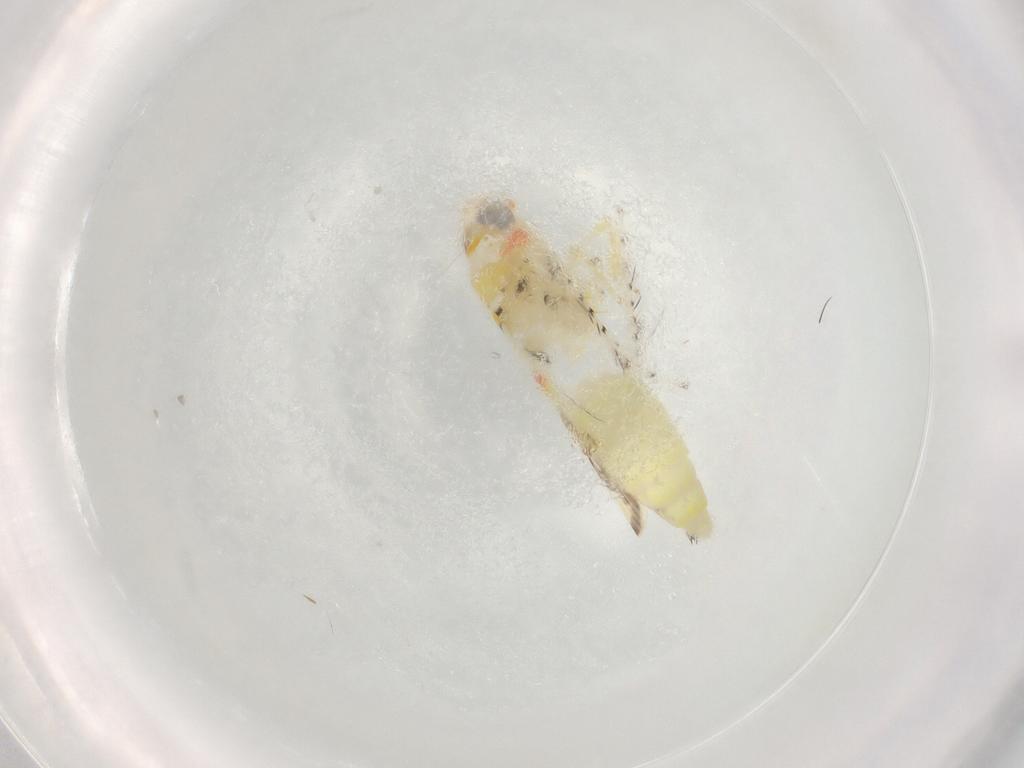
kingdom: Animalia
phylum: Arthropoda
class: Insecta
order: Hemiptera
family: Cicadellidae
